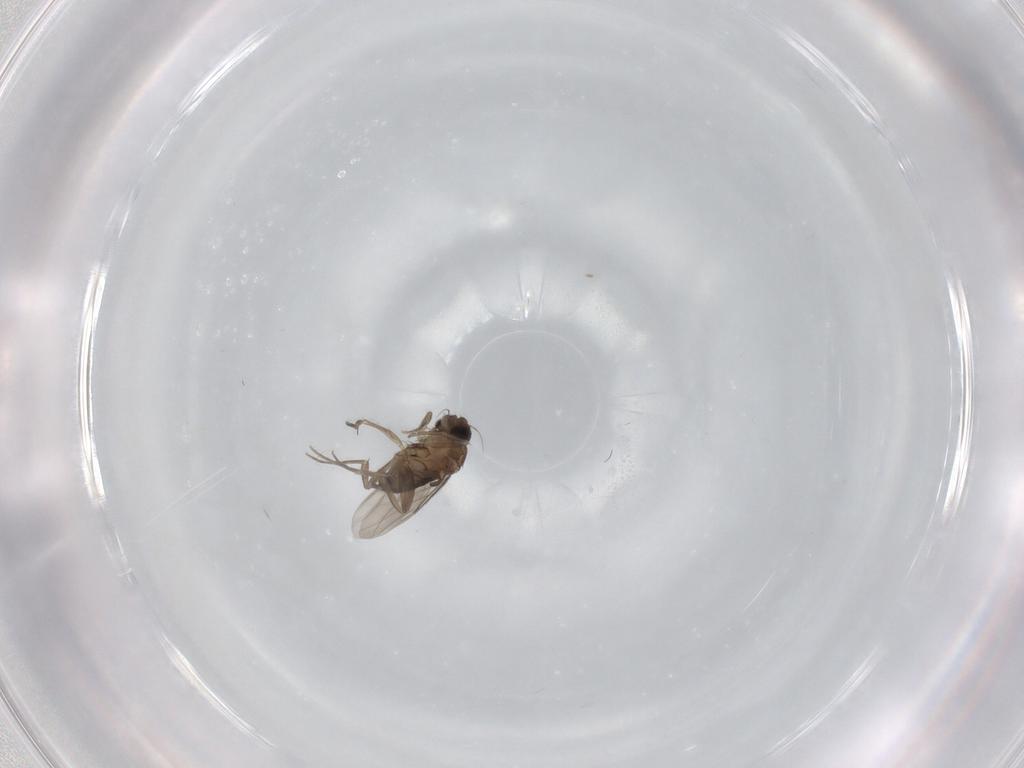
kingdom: Animalia
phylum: Arthropoda
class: Insecta
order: Diptera
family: Phoridae
